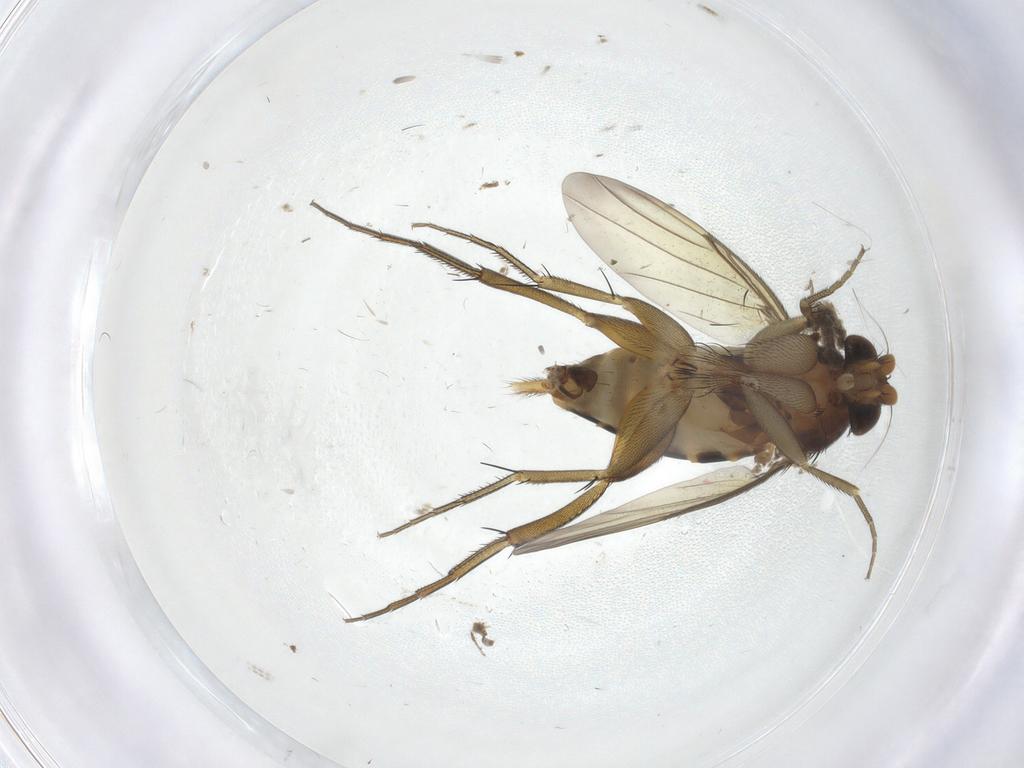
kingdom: Animalia
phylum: Arthropoda
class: Insecta
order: Diptera
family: Phoridae
